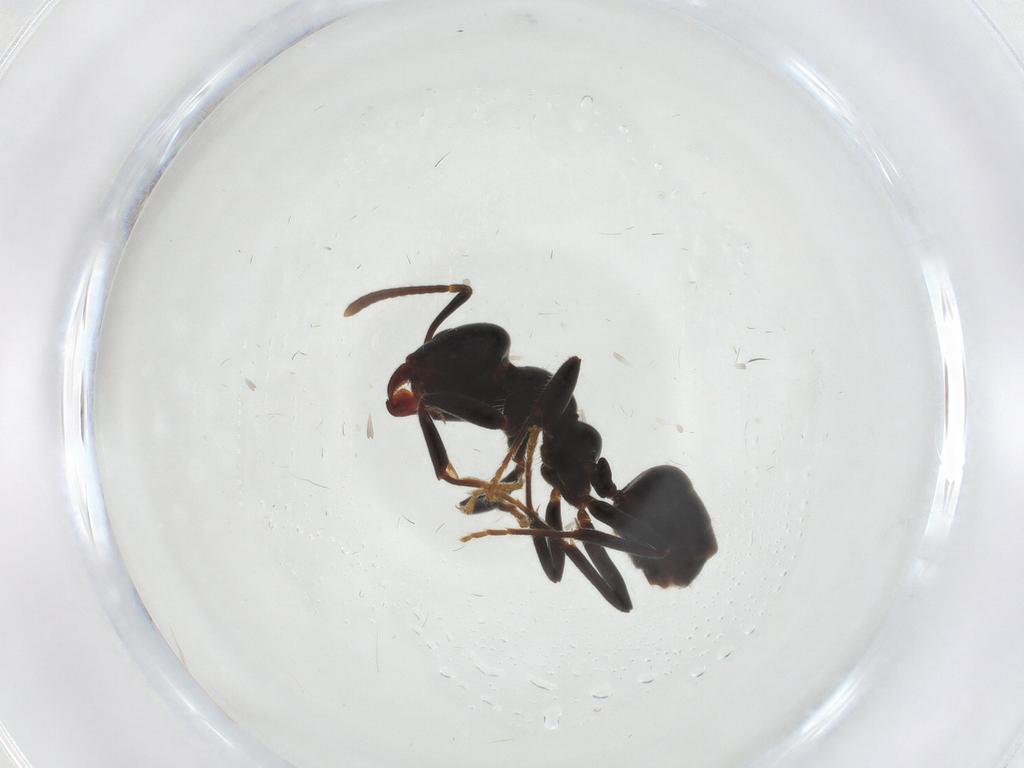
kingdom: Animalia
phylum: Arthropoda
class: Insecta
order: Hymenoptera
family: Formicidae
